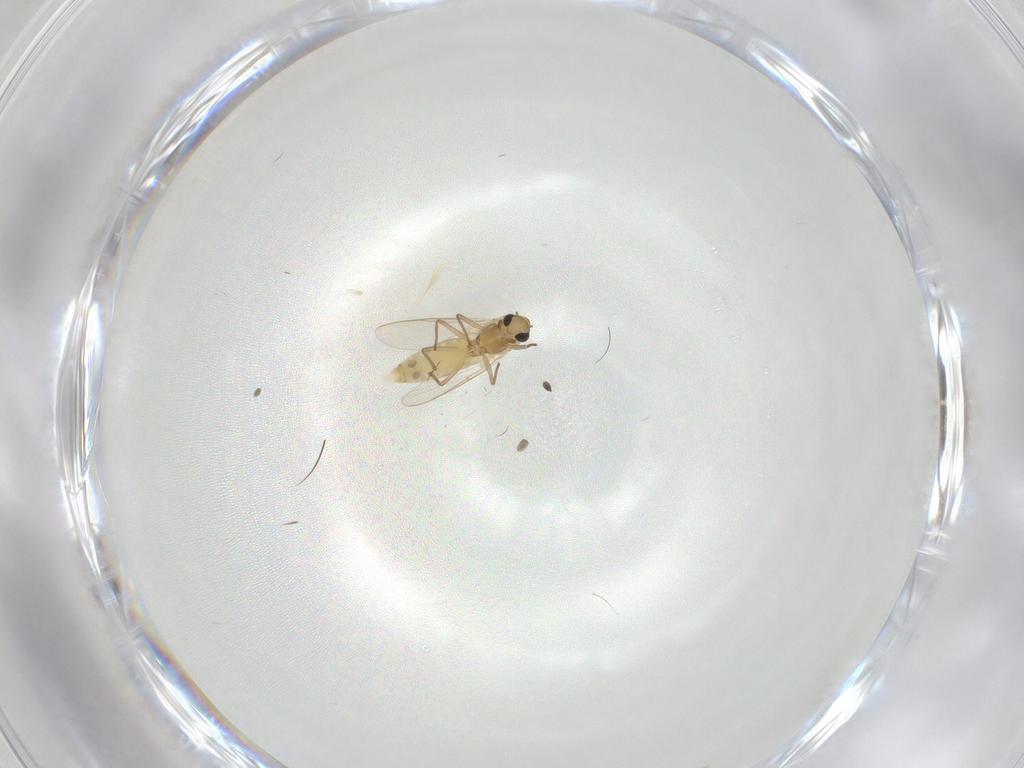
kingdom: Animalia
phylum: Arthropoda
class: Insecta
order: Diptera
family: Chironomidae
